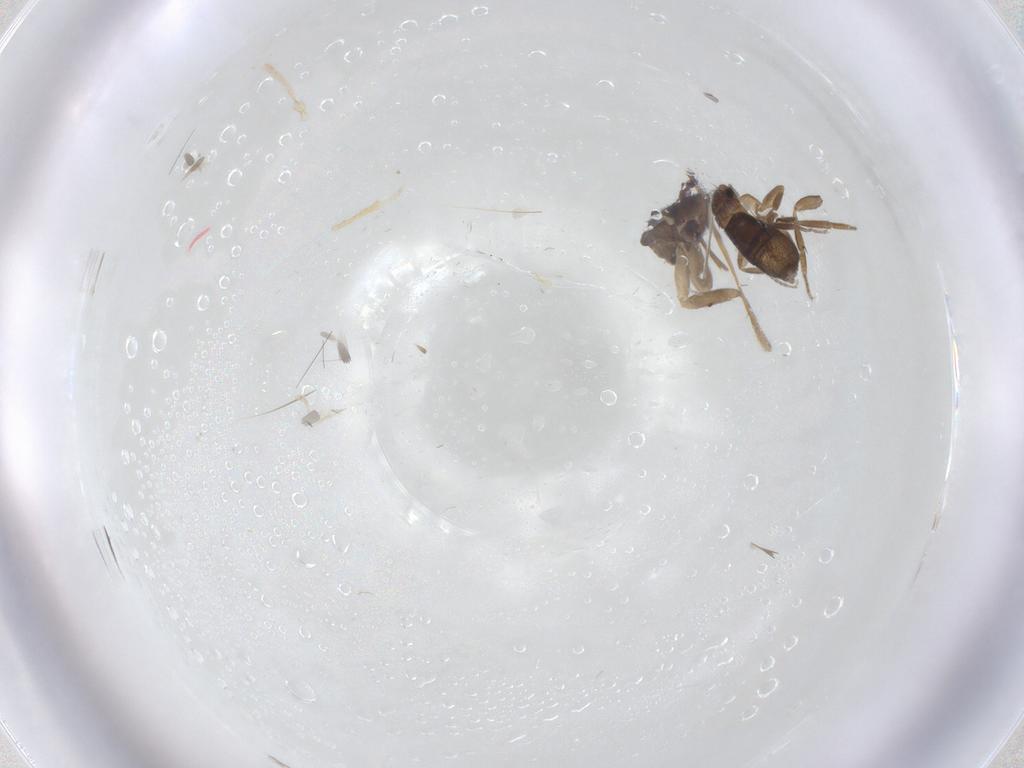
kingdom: Animalia
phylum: Arthropoda
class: Insecta
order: Diptera
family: Cecidomyiidae
